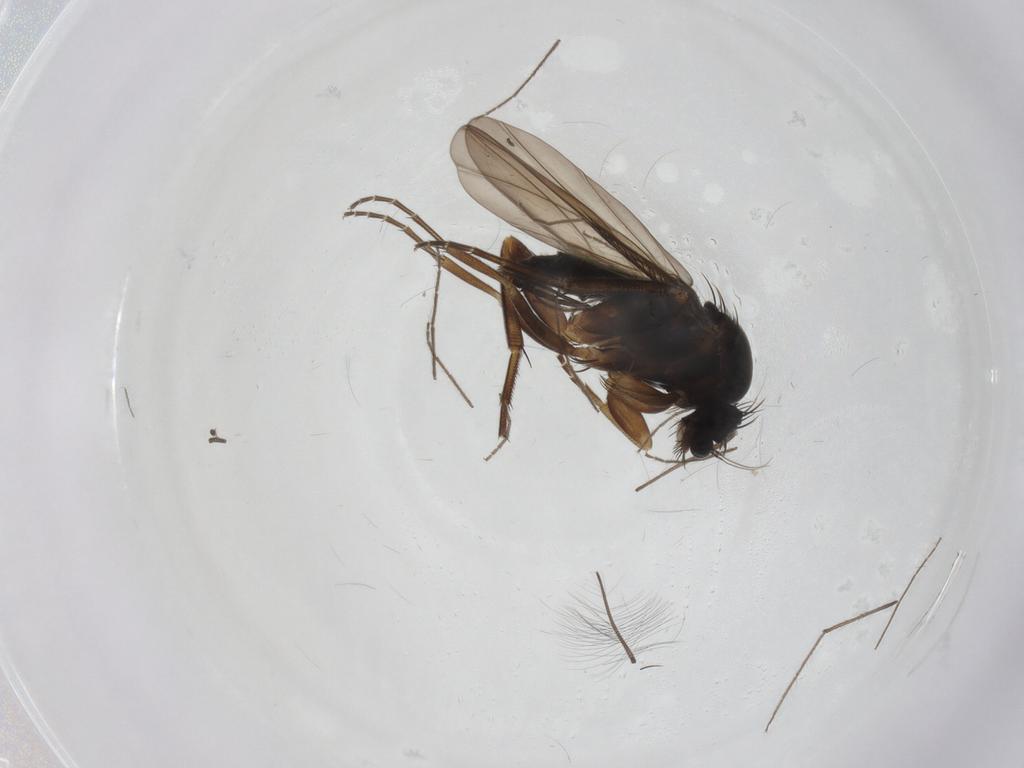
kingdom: Animalia
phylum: Arthropoda
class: Insecta
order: Diptera
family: Phoridae
